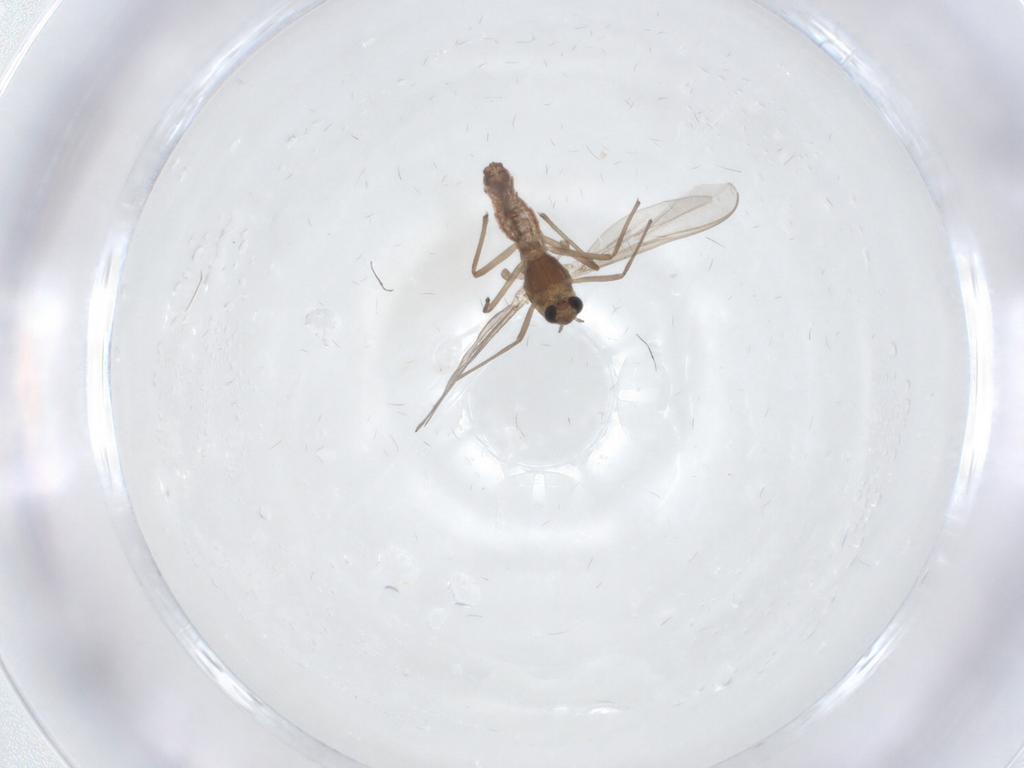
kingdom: Animalia
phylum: Arthropoda
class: Insecta
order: Diptera
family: Chironomidae
